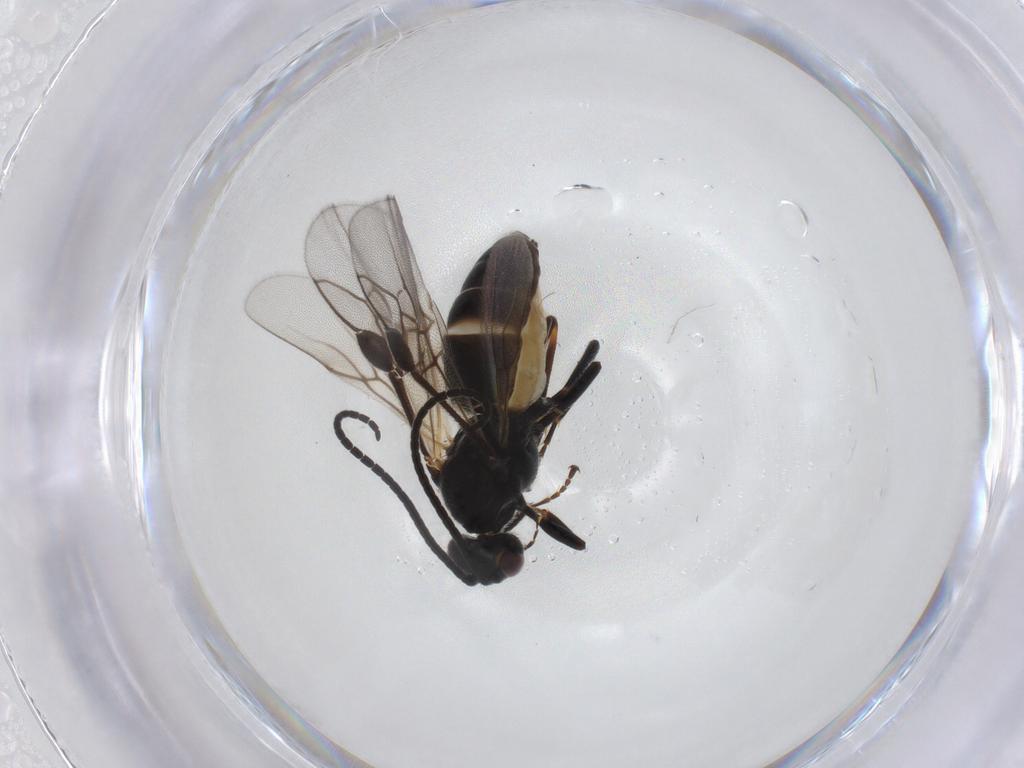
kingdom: Animalia
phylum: Arthropoda
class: Insecta
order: Hymenoptera
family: Braconidae
